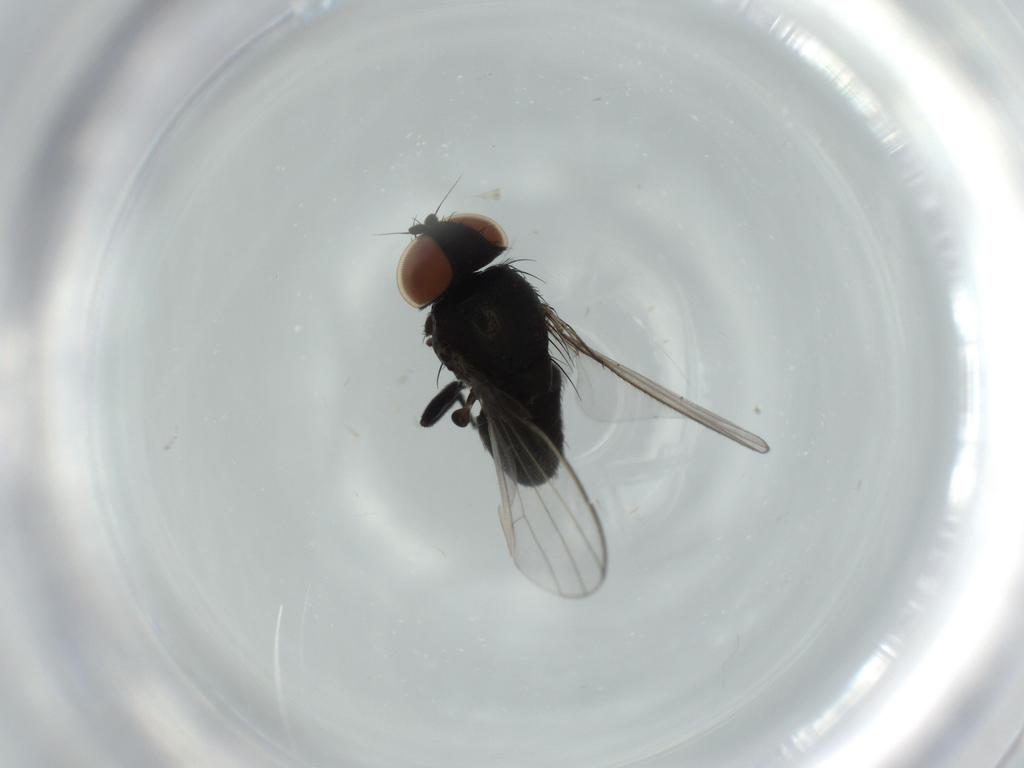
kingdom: Animalia
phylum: Arthropoda
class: Insecta
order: Diptera
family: Milichiidae
